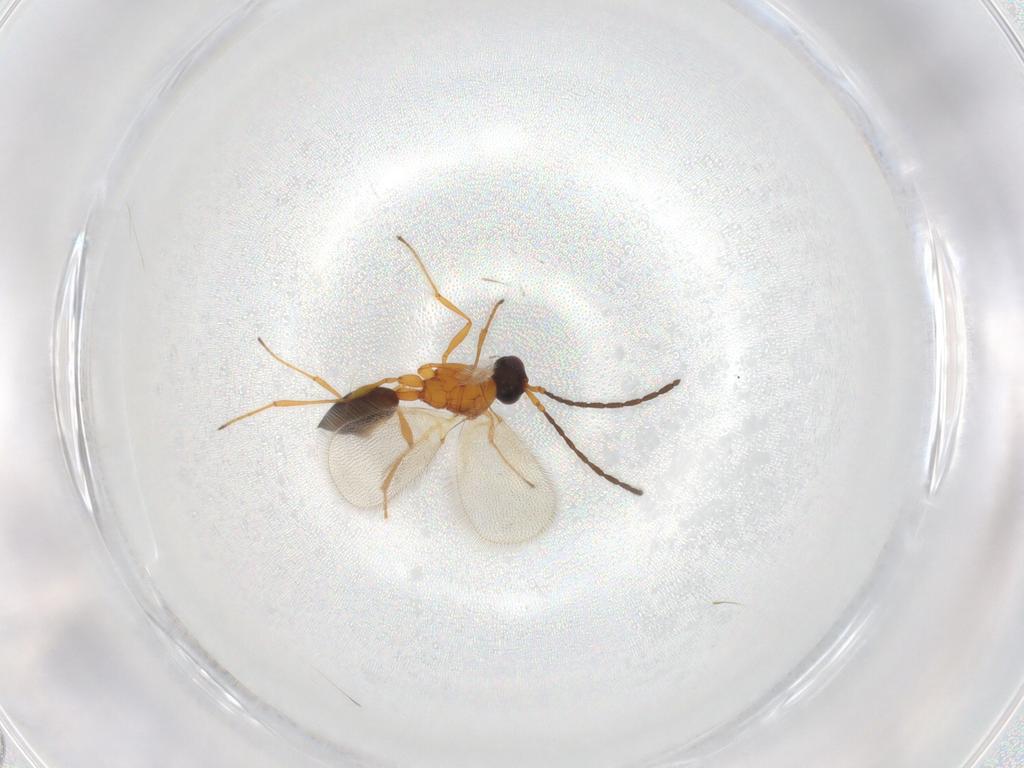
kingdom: Animalia
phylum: Arthropoda
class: Insecta
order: Hymenoptera
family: Diapriidae
